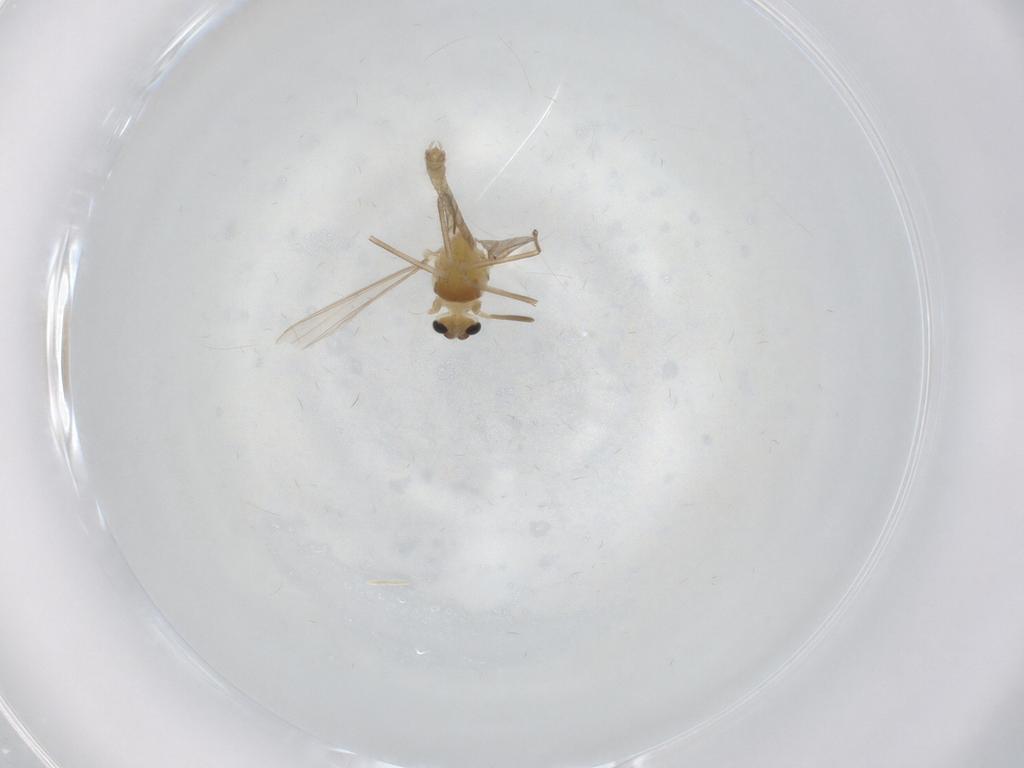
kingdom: Animalia
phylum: Arthropoda
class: Insecta
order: Diptera
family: Chironomidae
